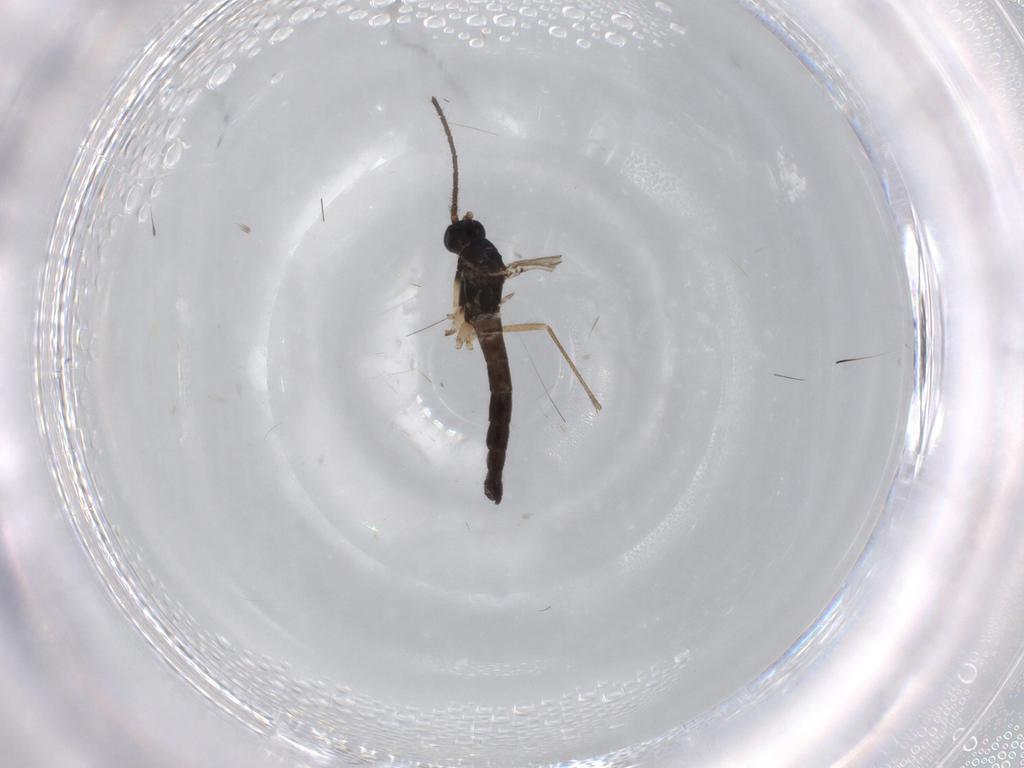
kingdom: Animalia
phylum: Arthropoda
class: Insecta
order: Diptera
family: Sciaridae
